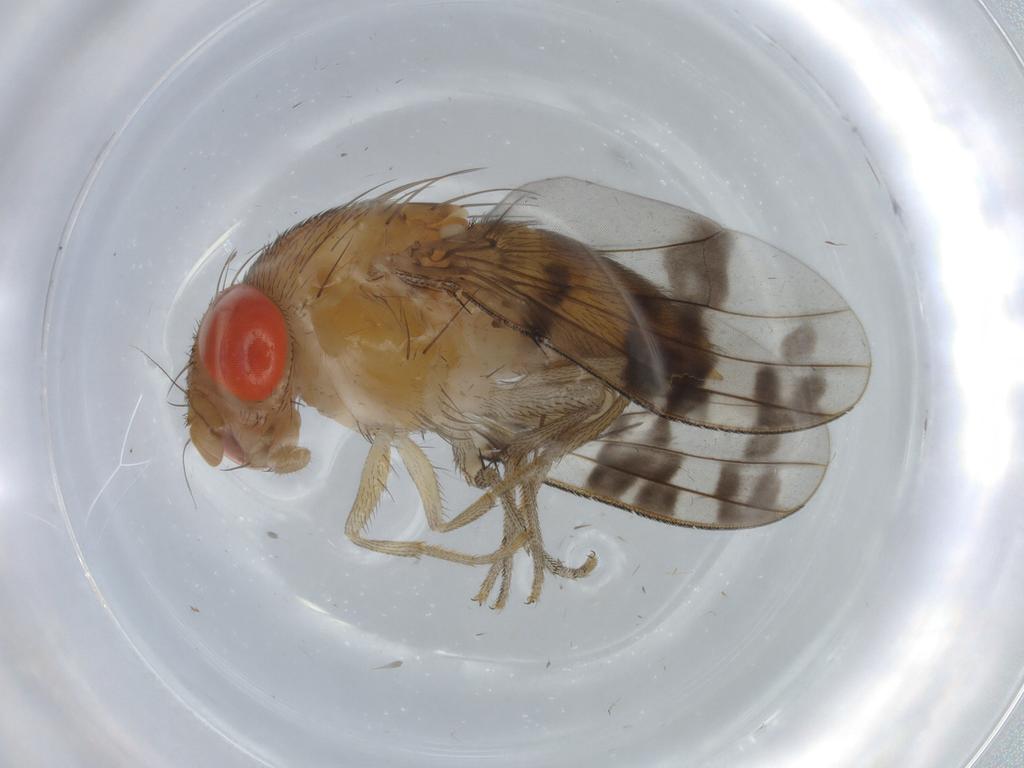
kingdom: Animalia
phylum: Arthropoda
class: Insecta
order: Diptera
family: Drosophilidae
